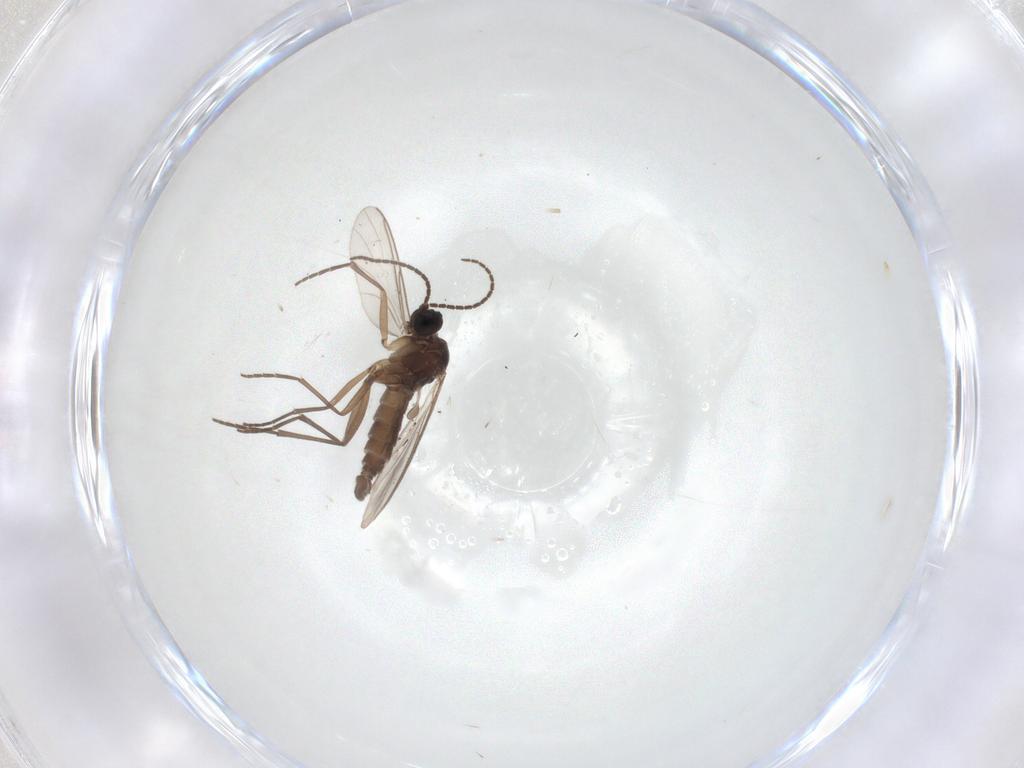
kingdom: Animalia
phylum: Arthropoda
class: Insecta
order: Diptera
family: Sciaridae
